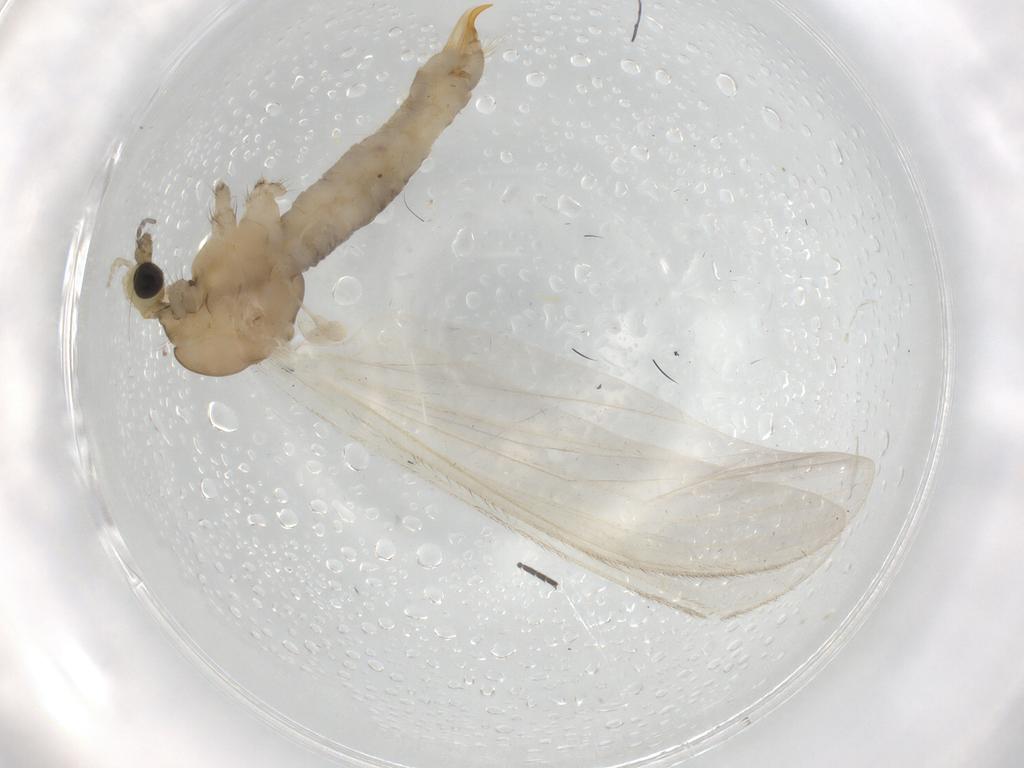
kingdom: Animalia
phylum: Arthropoda
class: Insecta
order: Diptera
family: Limoniidae
